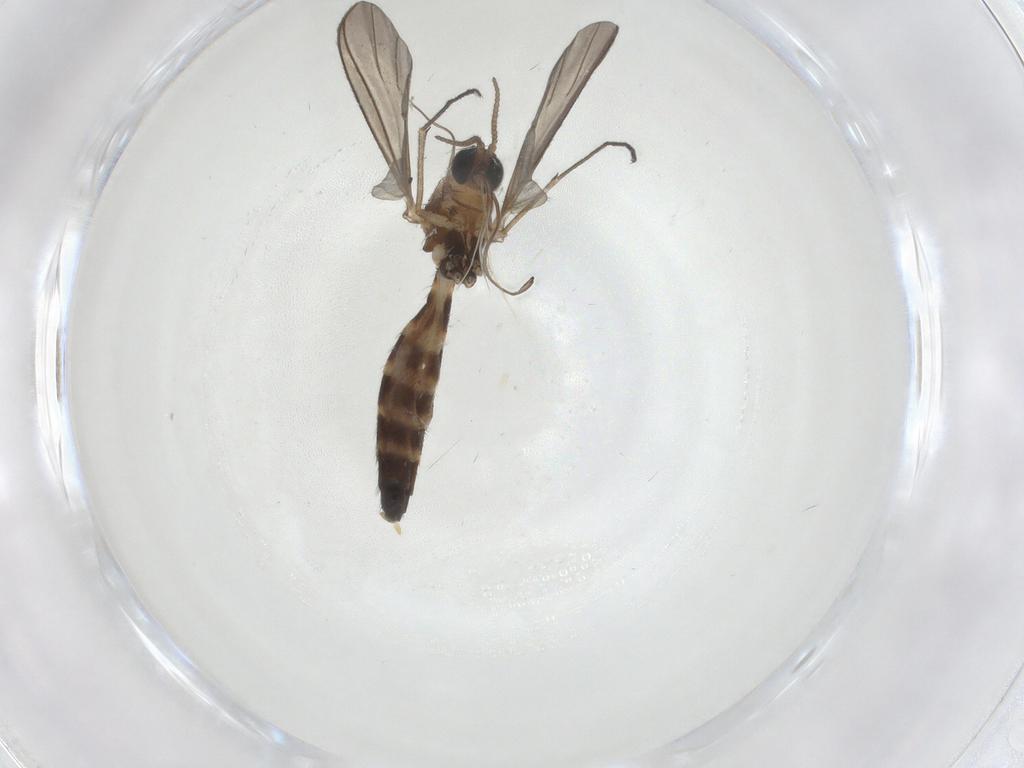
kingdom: Animalia
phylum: Arthropoda
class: Insecta
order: Diptera
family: Keroplatidae
